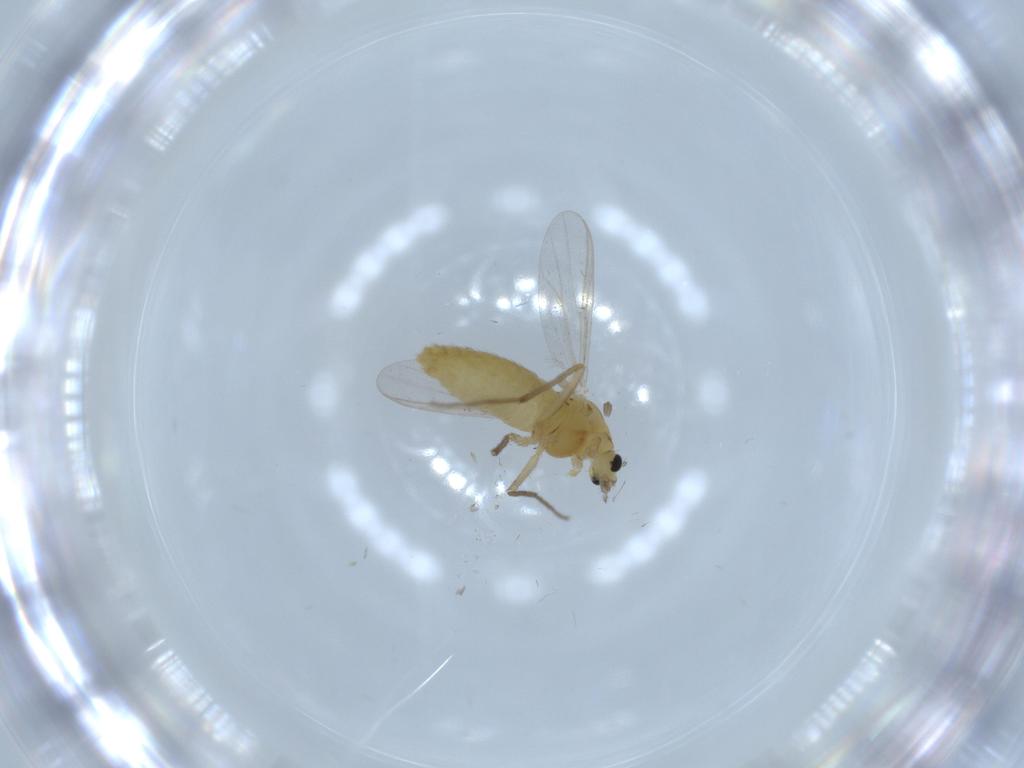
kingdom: Animalia
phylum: Arthropoda
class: Insecta
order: Diptera
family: Chironomidae
